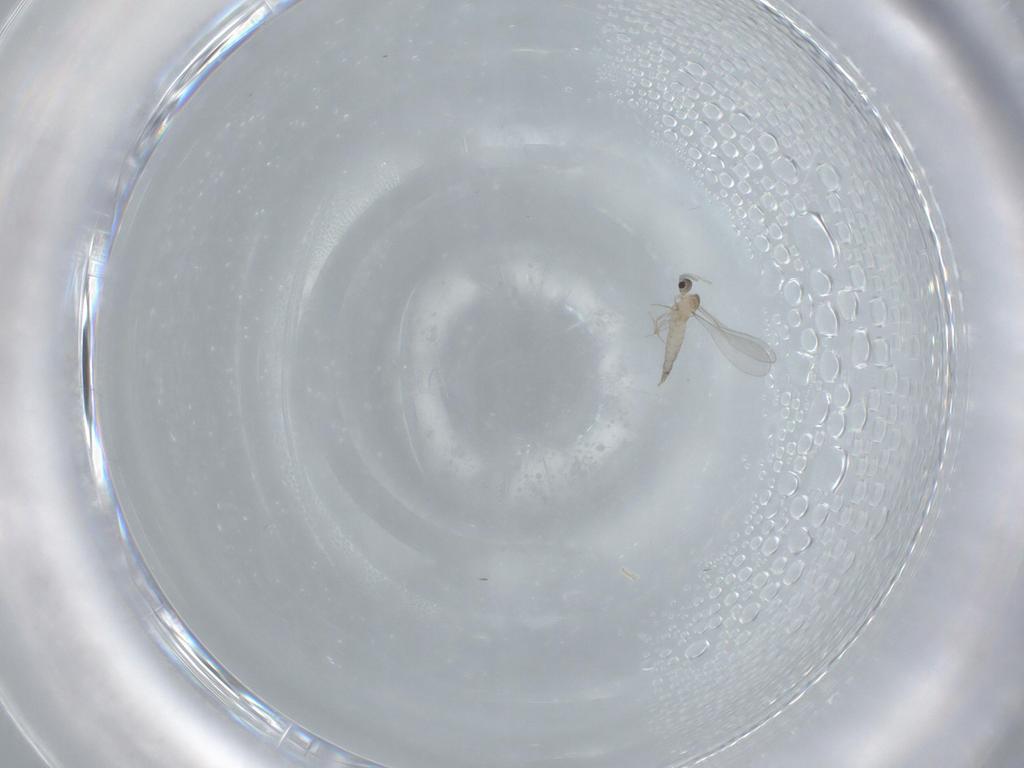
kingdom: Animalia
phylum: Arthropoda
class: Insecta
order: Diptera
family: Cecidomyiidae
